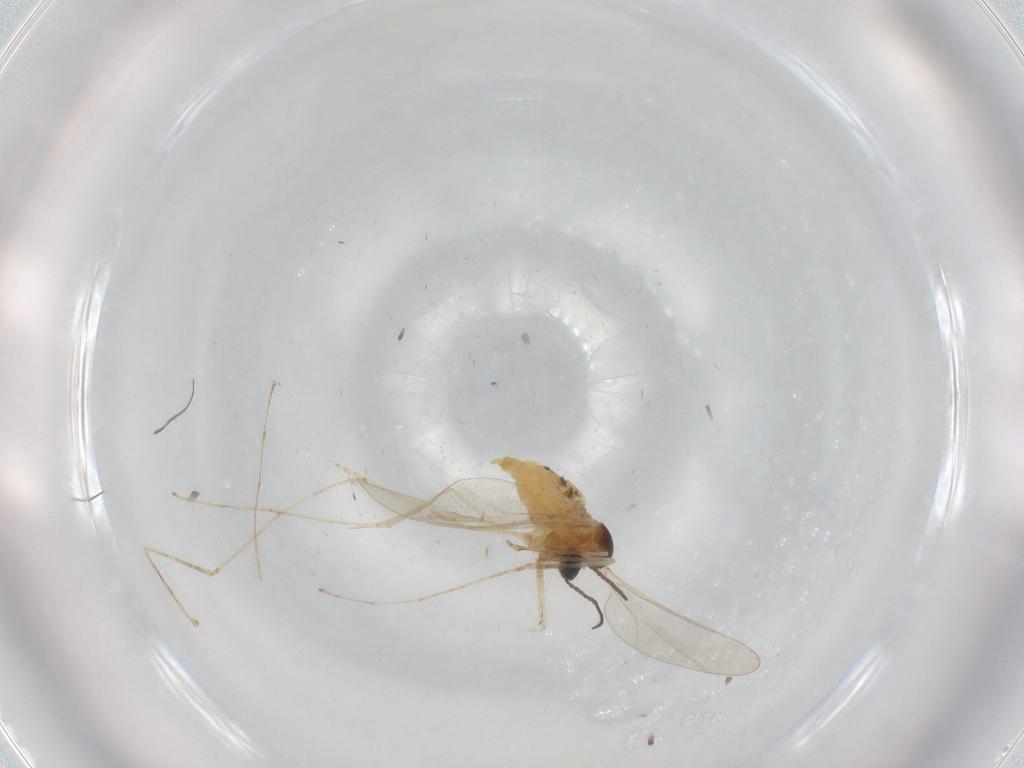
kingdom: Animalia
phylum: Arthropoda
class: Insecta
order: Diptera
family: Cecidomyiidae
